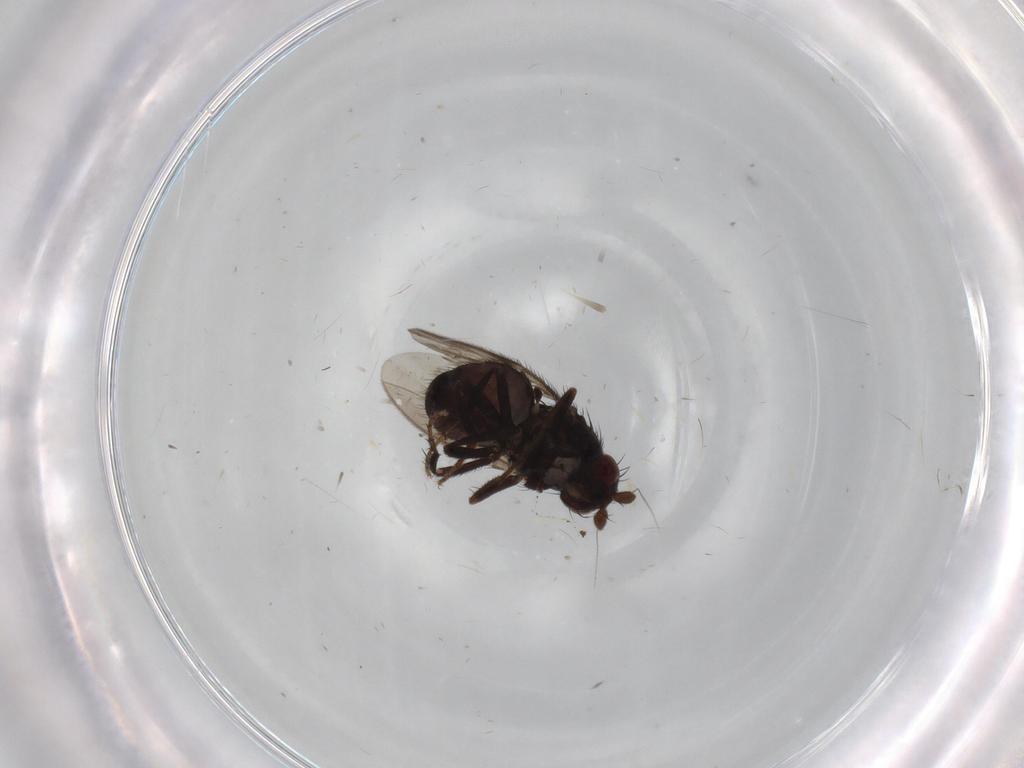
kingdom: Animalia
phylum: Arthropoda
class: Insecta
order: Diptera
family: Sphaeroceridae
